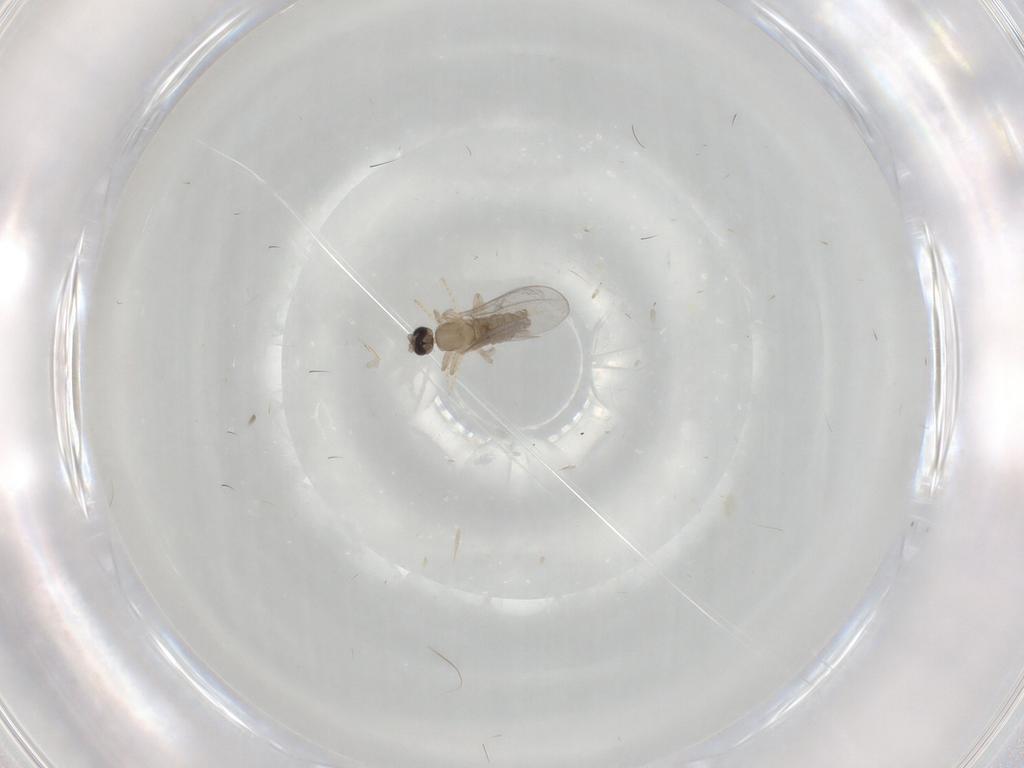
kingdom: Animalia
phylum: Arthropoda
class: Insecta
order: Diptera
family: Cecidomyiidae
